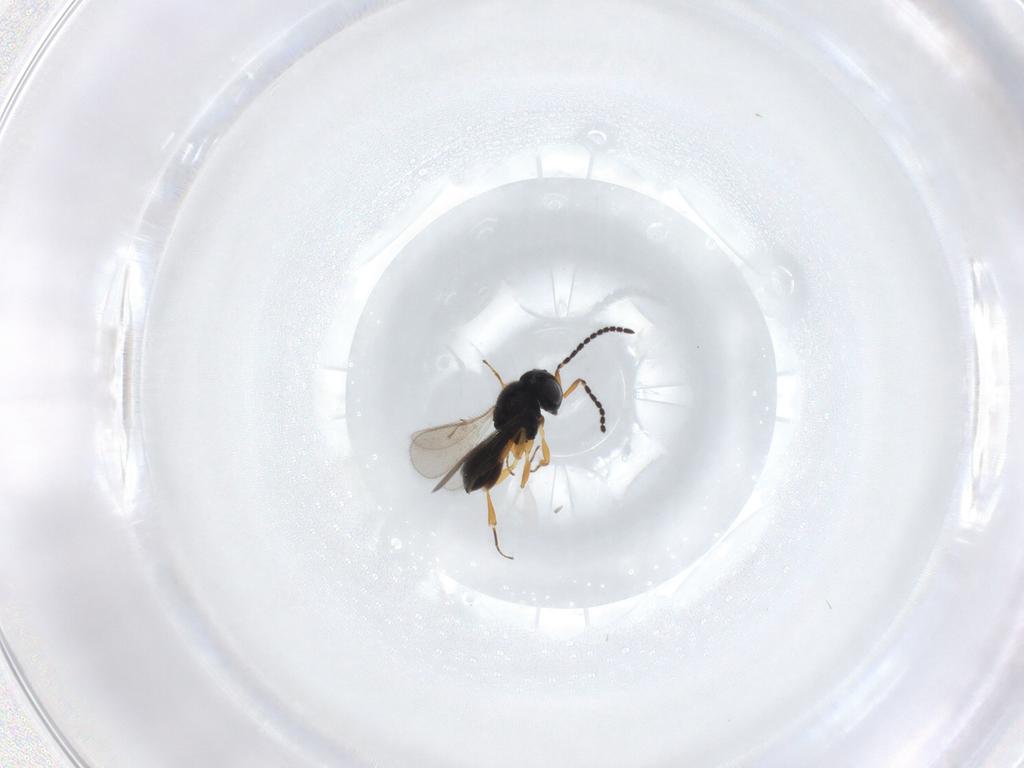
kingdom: Animalia
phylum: Arthropoda
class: Insecta
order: Hymenoptera
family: Scelionidae
